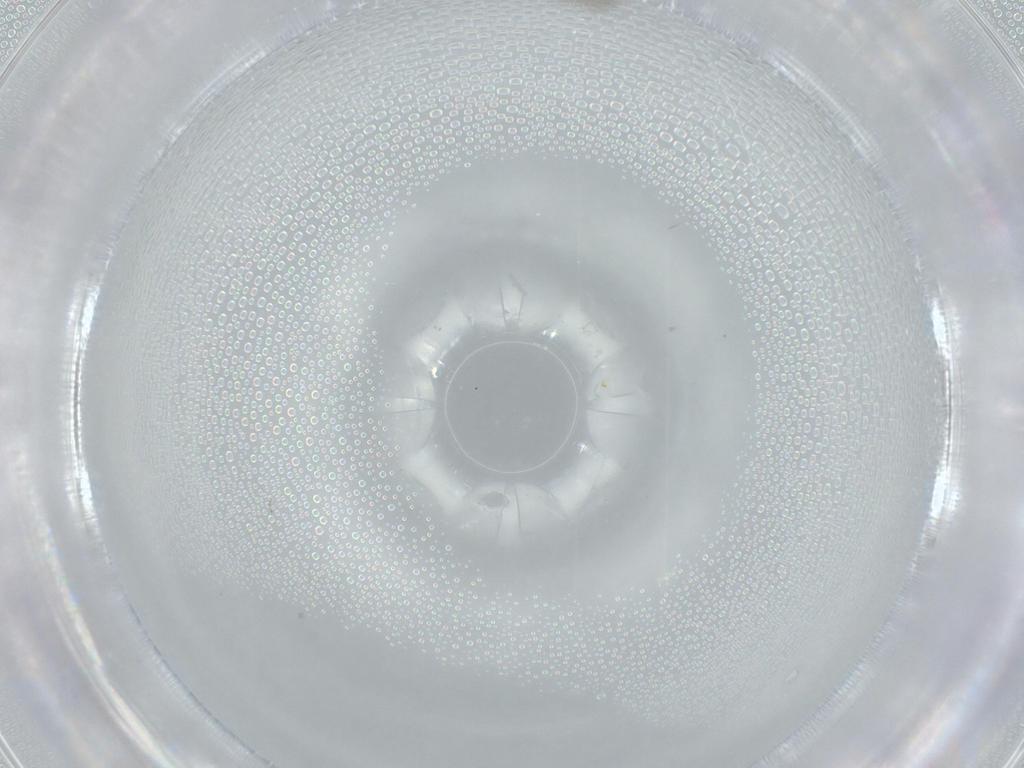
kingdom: Animalia
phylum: Arthropoda
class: Insecta
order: Diptera
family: Ceratopogonidae
